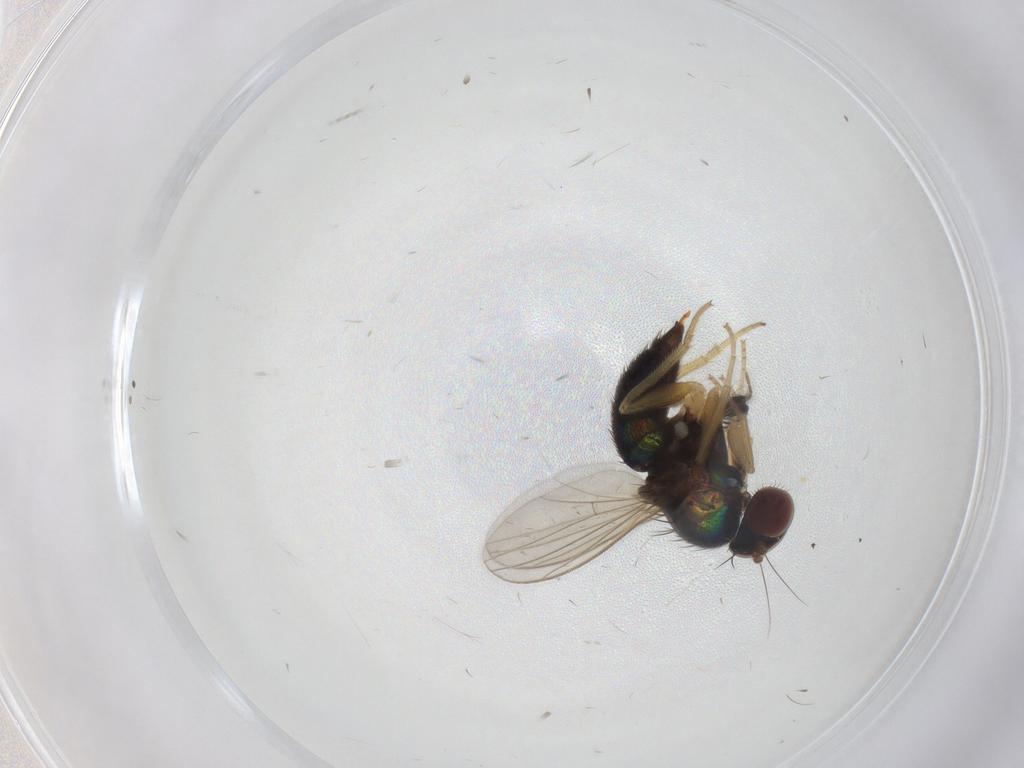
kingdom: Animalia
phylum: Arthropoda
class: Insecta
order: Diptera
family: Dolichopodidae
